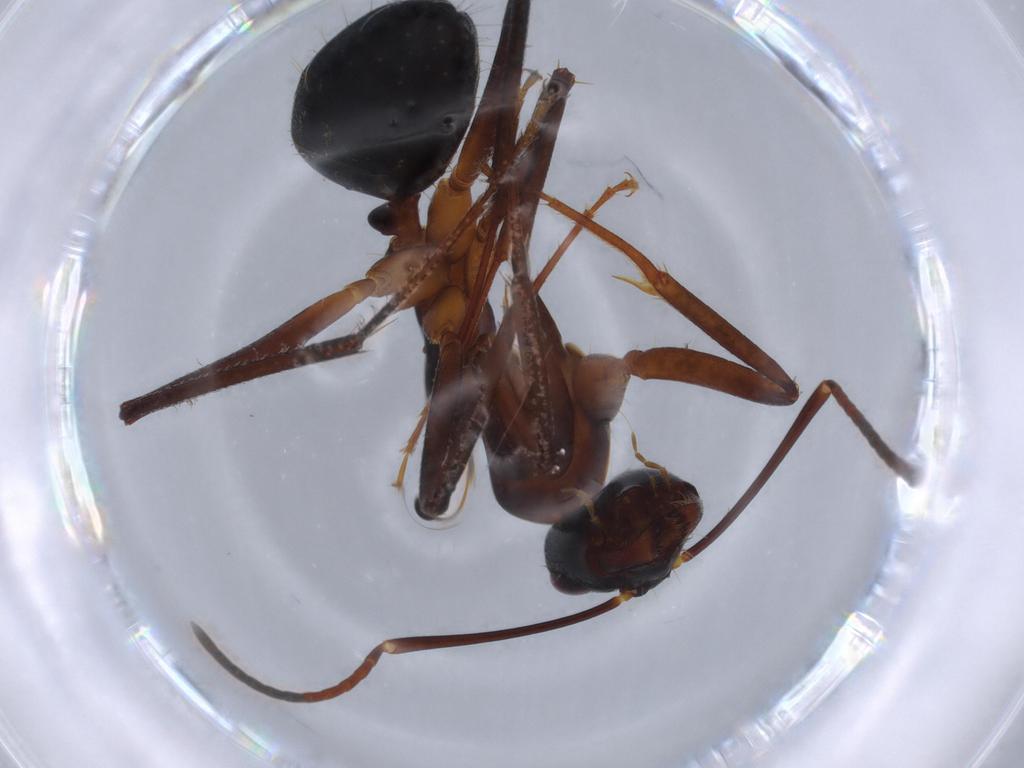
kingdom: Animalia
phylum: Arthropoda
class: Insecta
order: Hymenoptera
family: Formicidae
